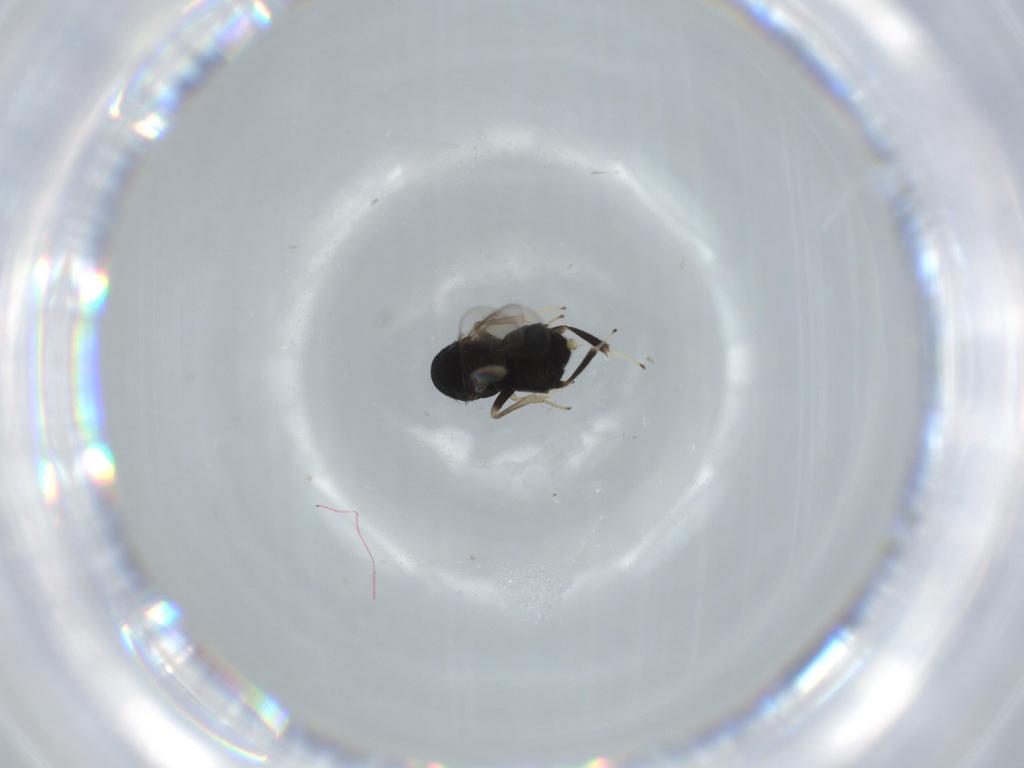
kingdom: Animalia
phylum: Arthropoda
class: Insecta
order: Hymenoptera
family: Aphelinidae
